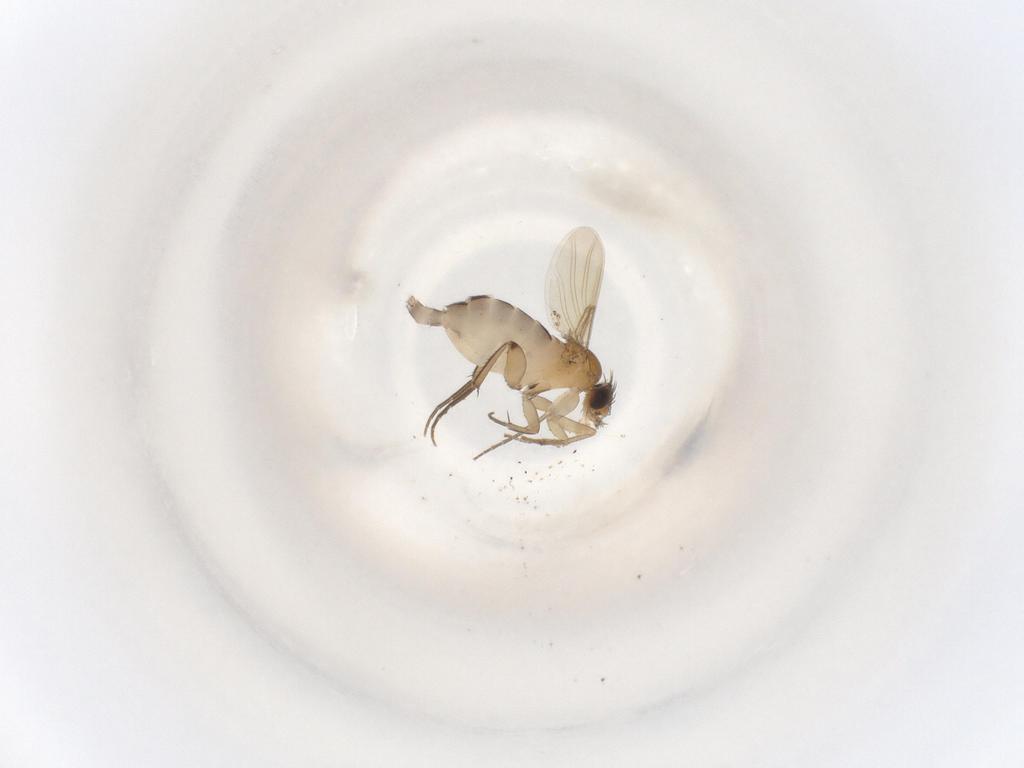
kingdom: Animalia
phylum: Arthropoda
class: Insecta
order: Diptera
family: Phoridae
